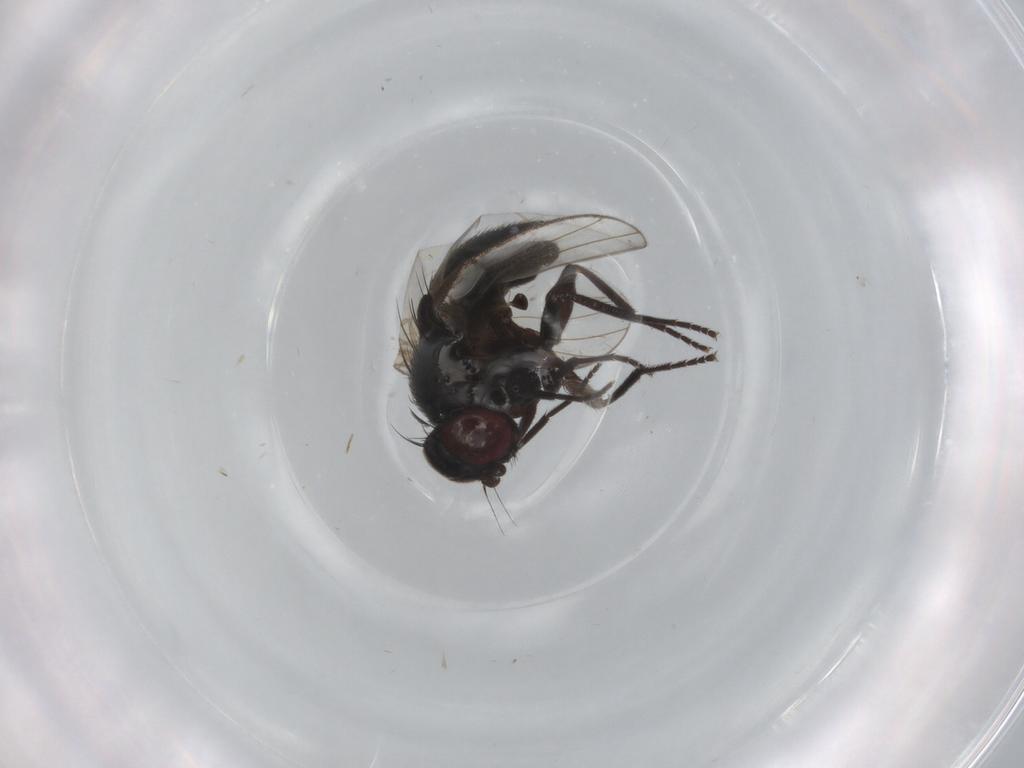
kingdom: Animalia
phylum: Arthropoda
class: Insecta
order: Diptera
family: Agromyzidae
